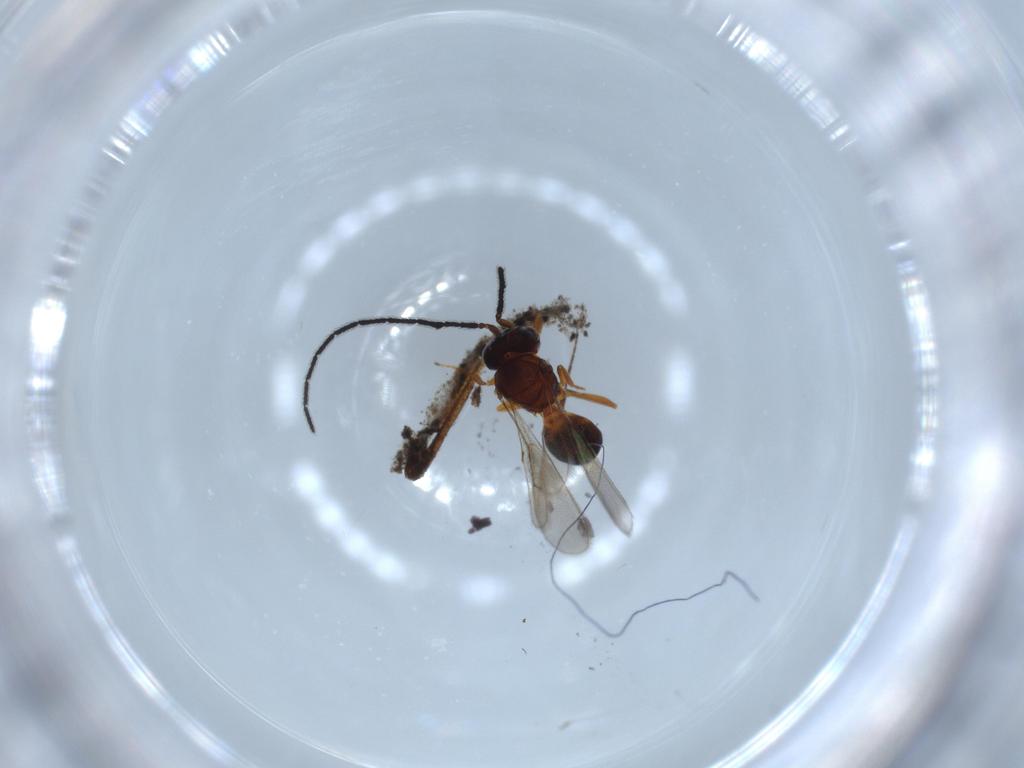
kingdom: Animalia
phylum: Arthropoda
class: Insecta
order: Hymenoptera
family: Scelionidae
